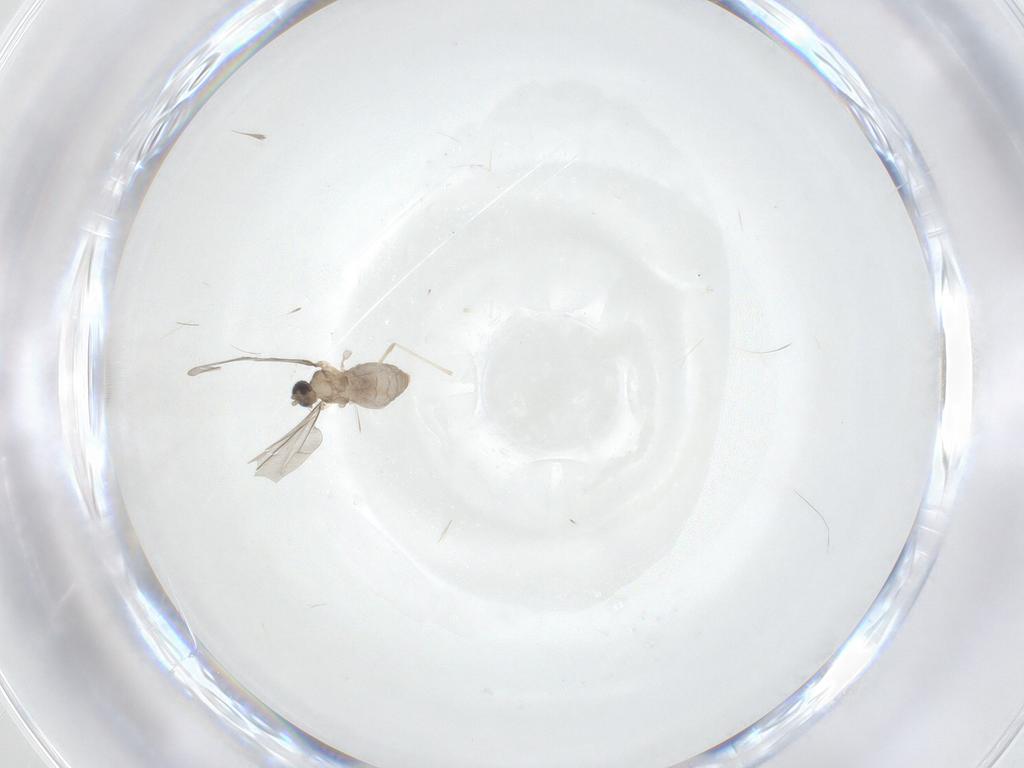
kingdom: Animalia
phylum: Arthropoda
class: Insecta
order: Diptera
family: Cecidomyiidae
